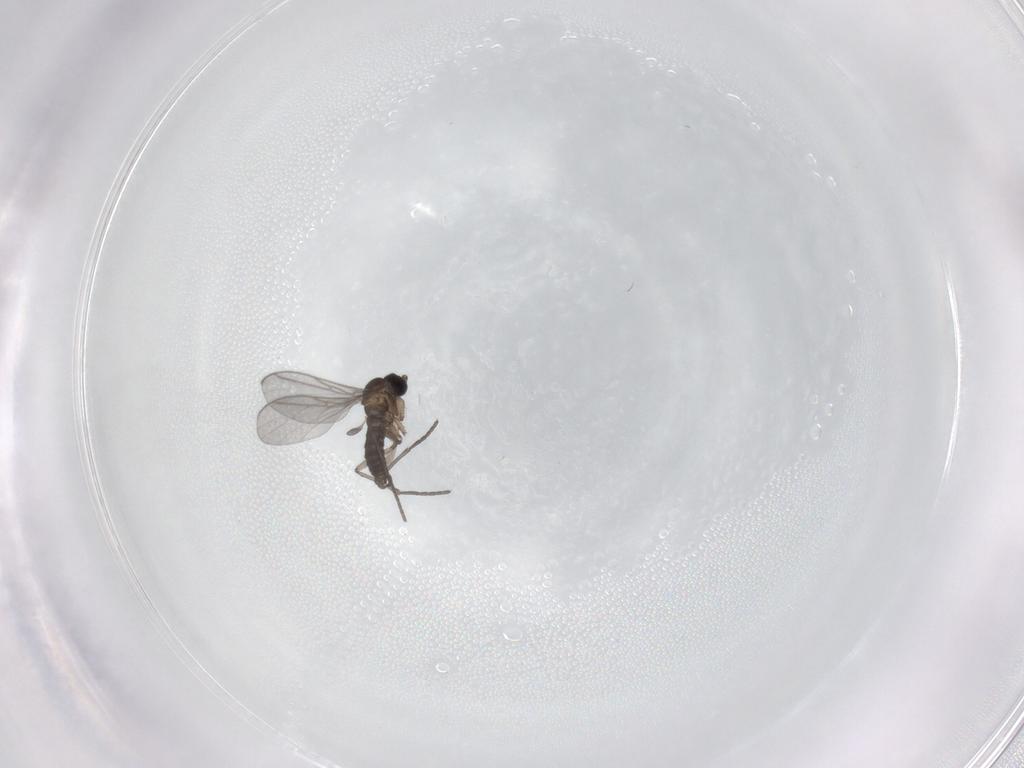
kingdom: Animalia
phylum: Arthropoda
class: Insecta
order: Diptera
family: Sciaridae
